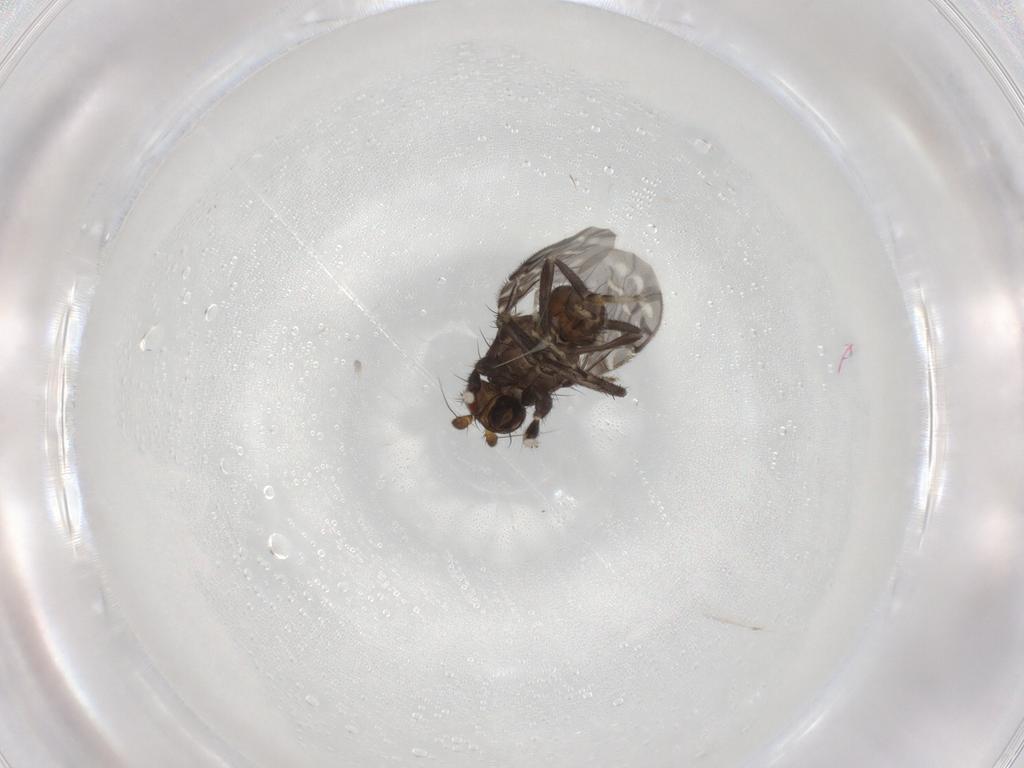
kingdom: Animalia
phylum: Arthropoda
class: Insecta
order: Diptera
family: Sphaeroceridae
